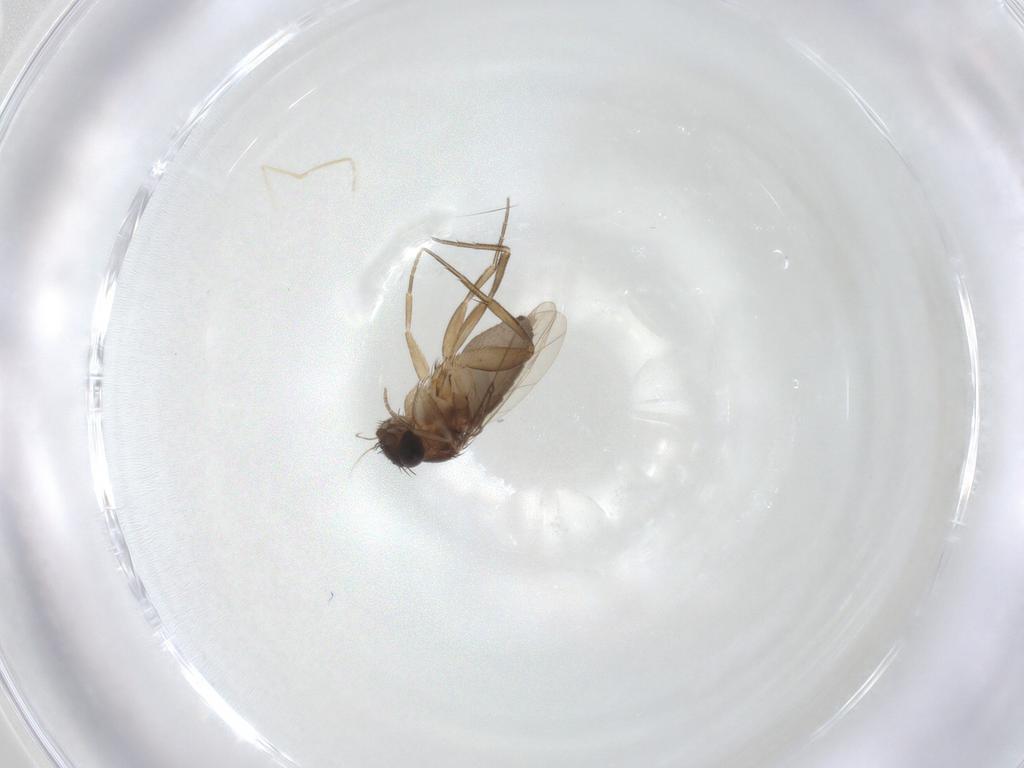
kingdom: Animalia
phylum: Arthropoda
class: Insecta
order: Diptera
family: Cecidomyiidae
